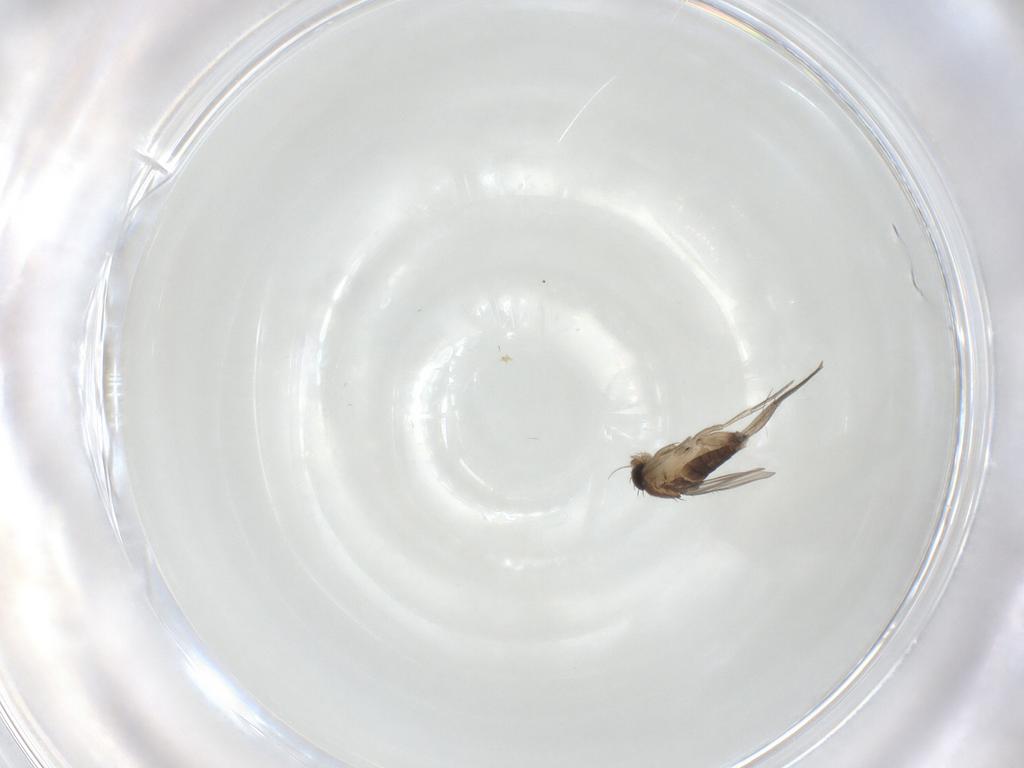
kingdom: Animalia
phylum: Arthropoda
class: Insecta
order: Diptera
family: Phoridae
